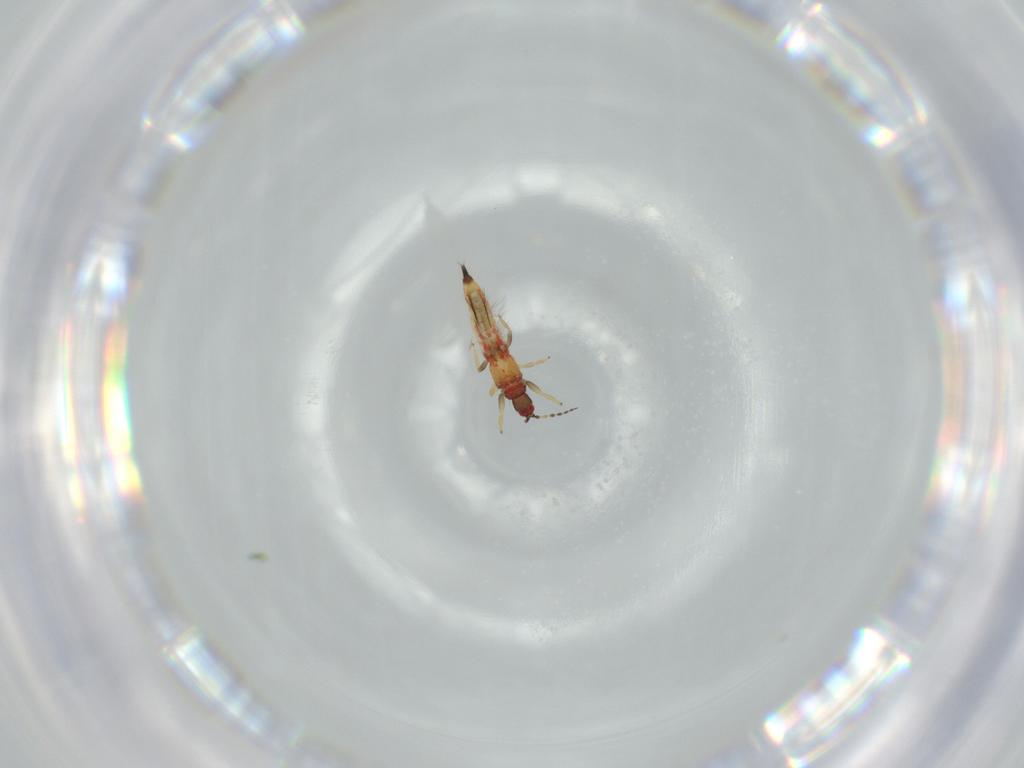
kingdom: Animalia
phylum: Arthropoda
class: Insecta
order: Thysanoptera
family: Phlaeothripidae
